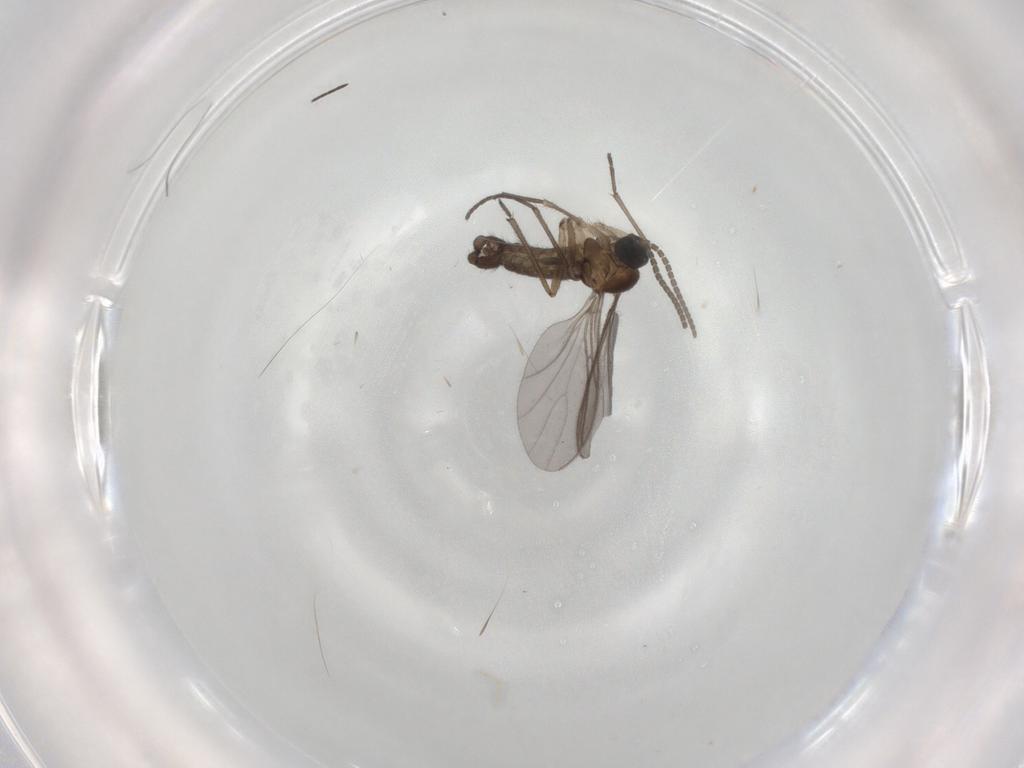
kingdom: Animalia
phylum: Arthropoda
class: Insecta
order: Diptera
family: Sciaridae
